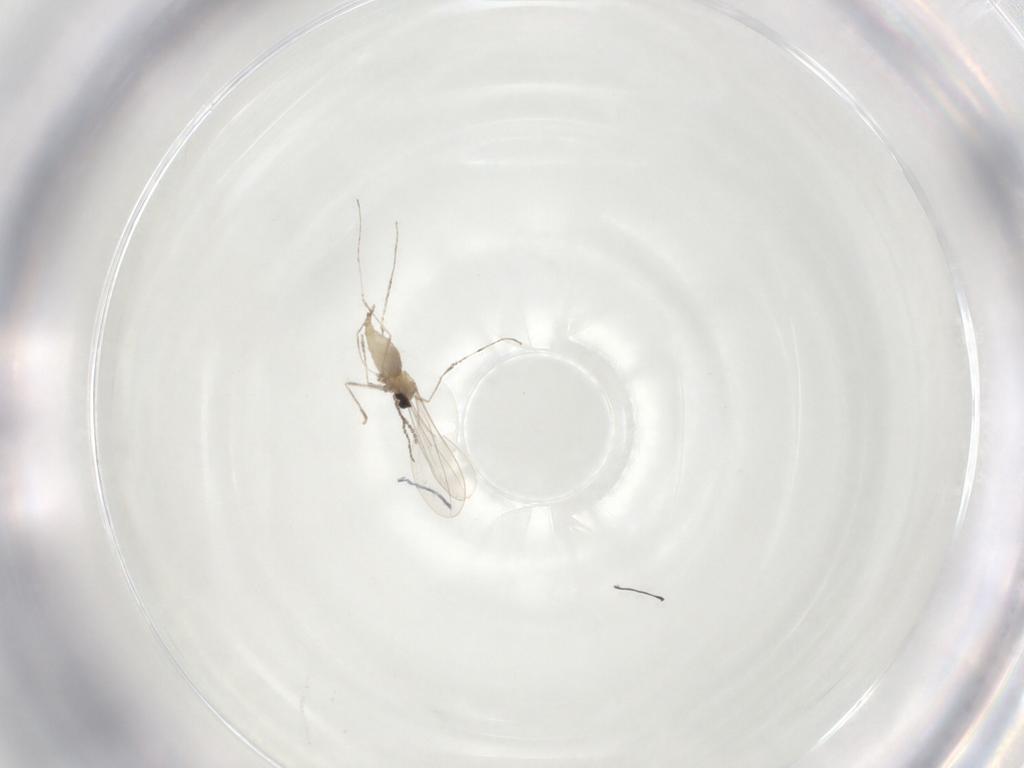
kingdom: Animalia
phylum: Arthropoda
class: Insecta
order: Diptera
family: Cecidomyiidae
